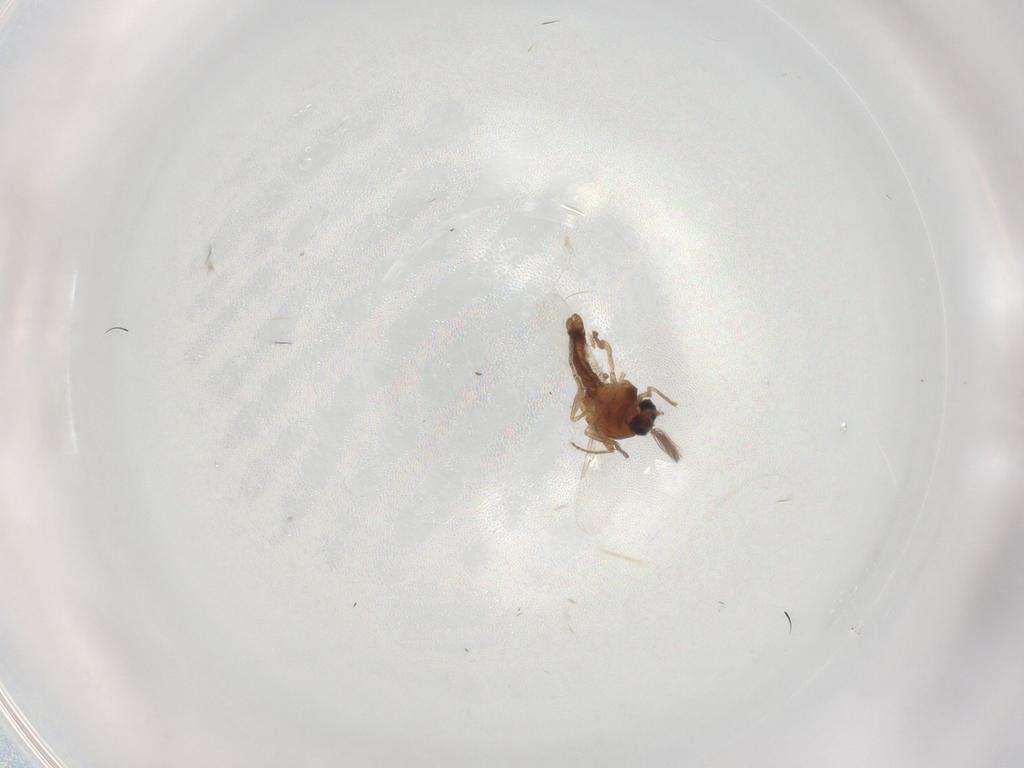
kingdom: Animalia
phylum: Arthropoda
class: Insecta
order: Diptera
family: Ceratopogonidae
